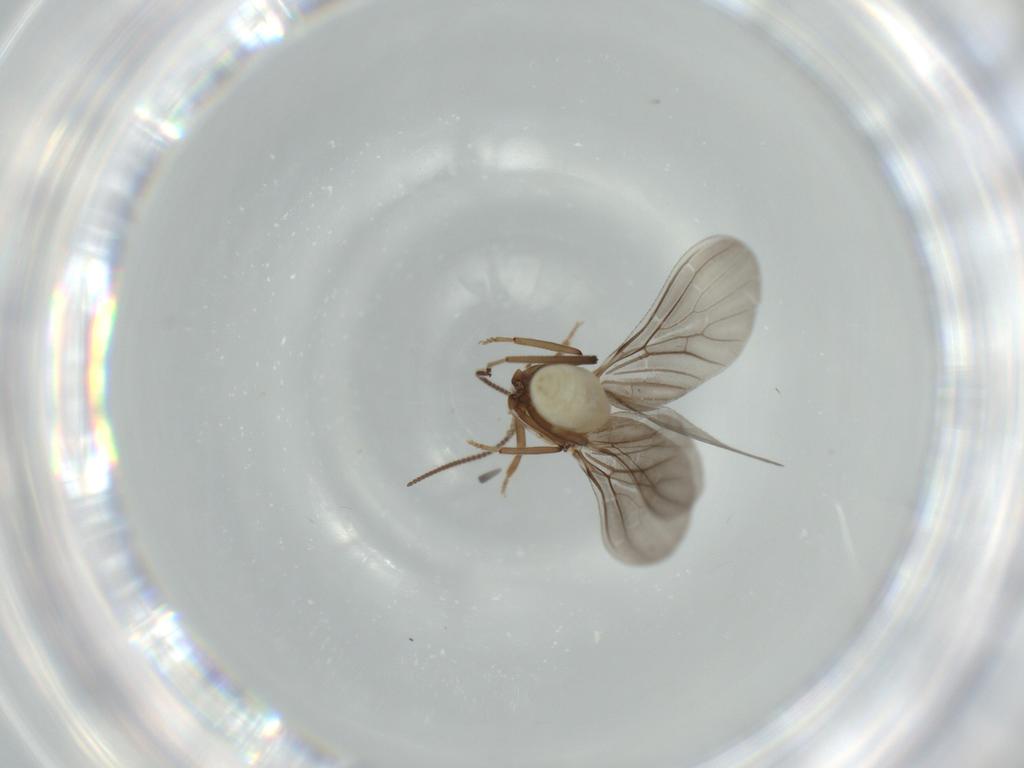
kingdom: Animalia
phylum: Arthropoda
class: Insecta
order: Neuroptera
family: Coniopterygidae
